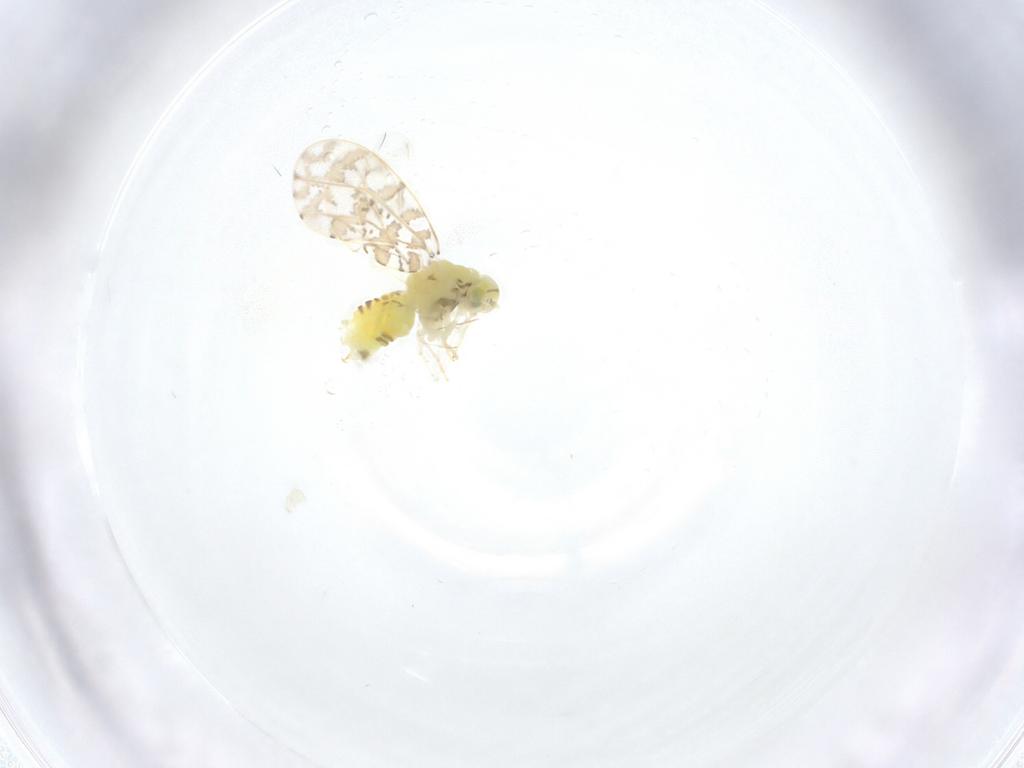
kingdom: Animalia
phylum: Arthropoda
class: Insecta
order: Hemiptera
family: Aleyrodidae
